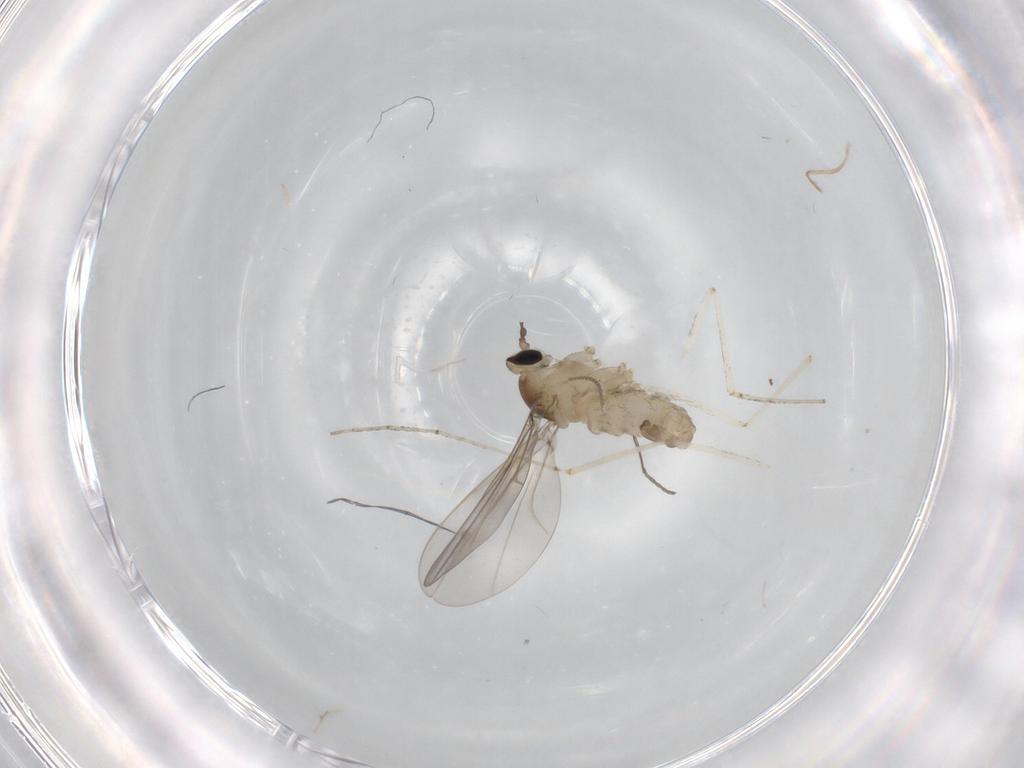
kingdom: Animalia
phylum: Arthropoda
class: Insecta
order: Diptera
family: Sciaridae
